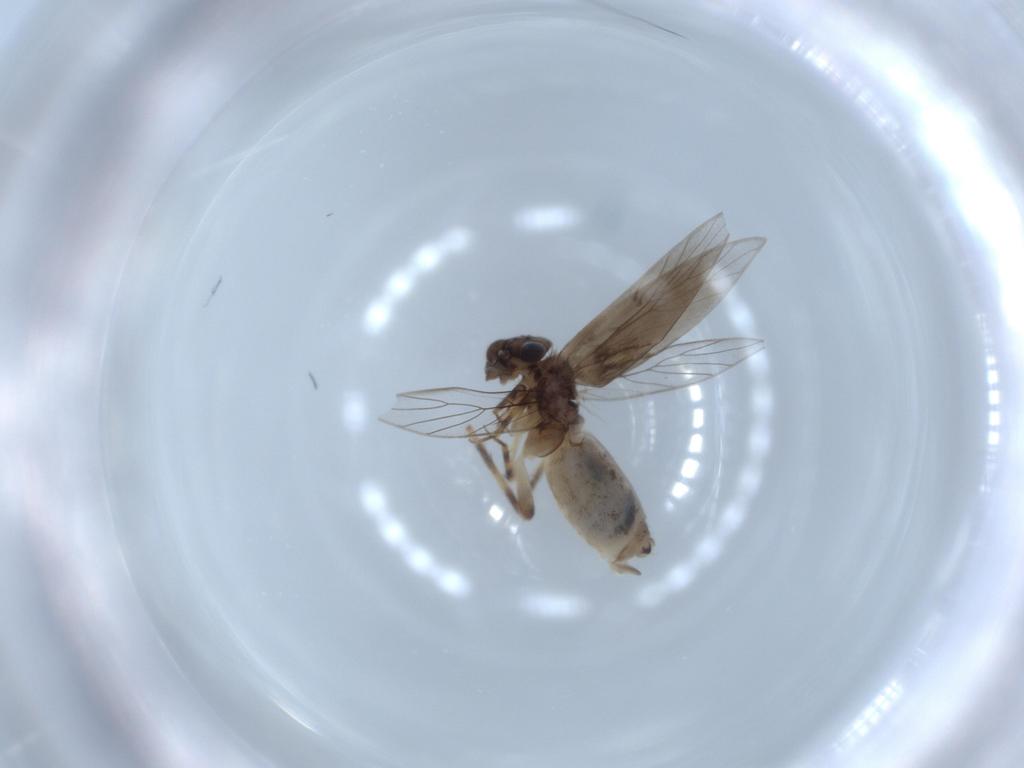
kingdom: Animalia
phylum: Arthropoda
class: Insecta
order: Psocodea
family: Lepidopsocidae
